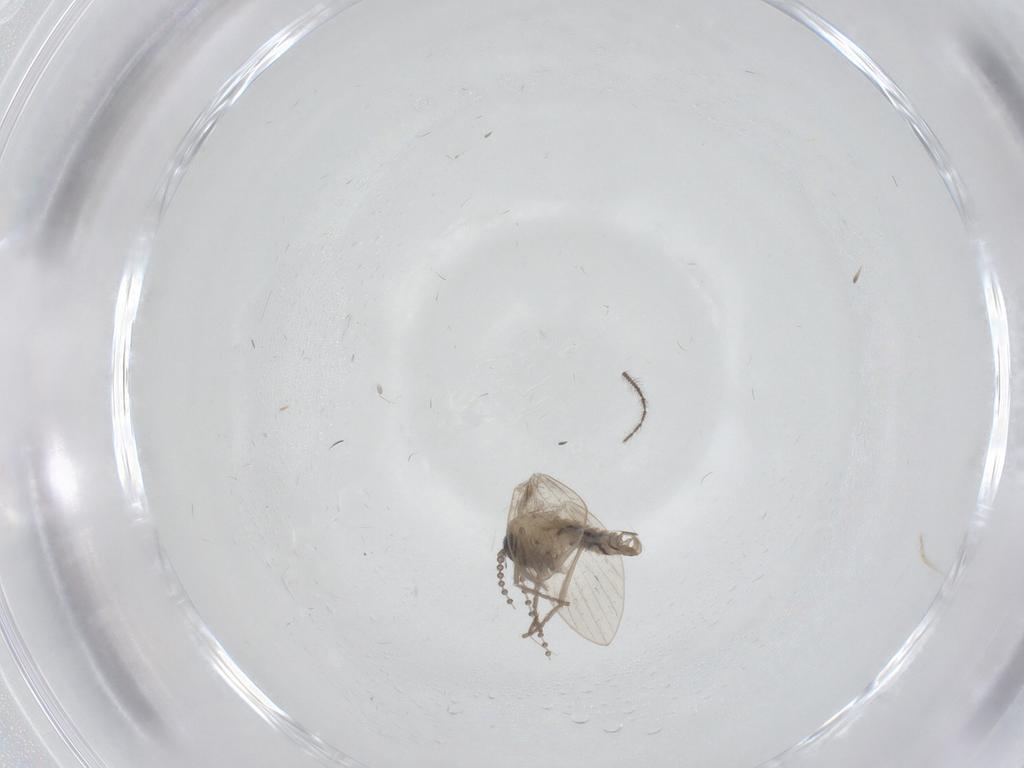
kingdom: Animalia
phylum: Arthropoda
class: Insecta
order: Diptera
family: Psychodidae
